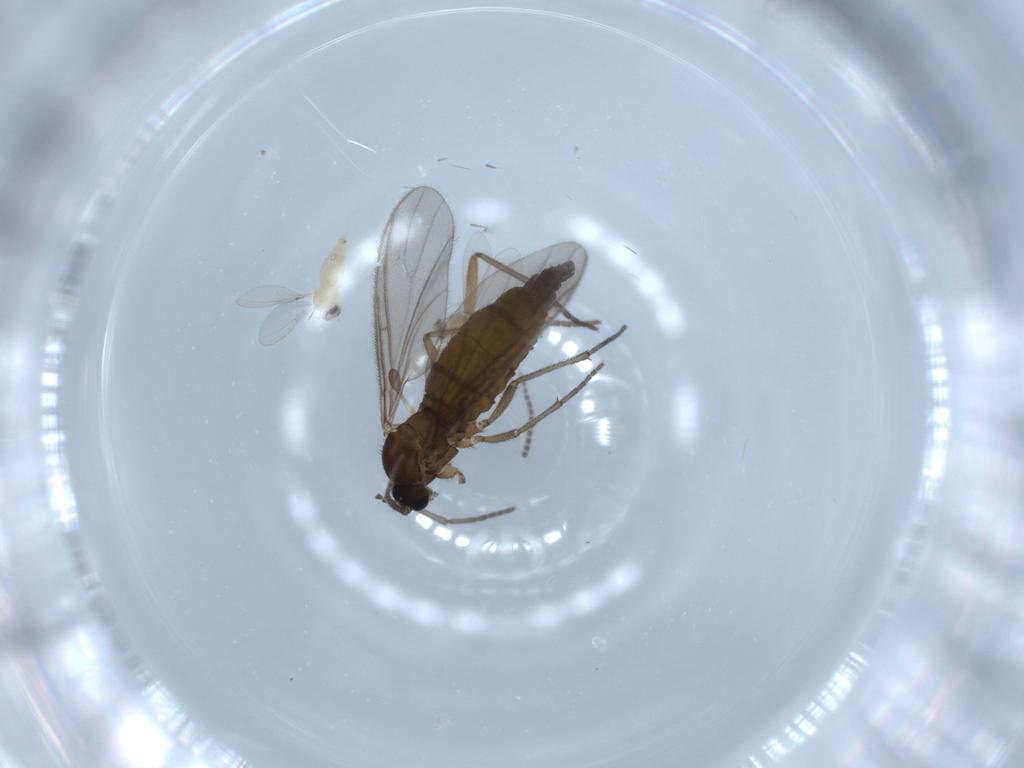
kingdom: Animalia
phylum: Arthropoda
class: Insecta
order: Diptera
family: Sciaridae
